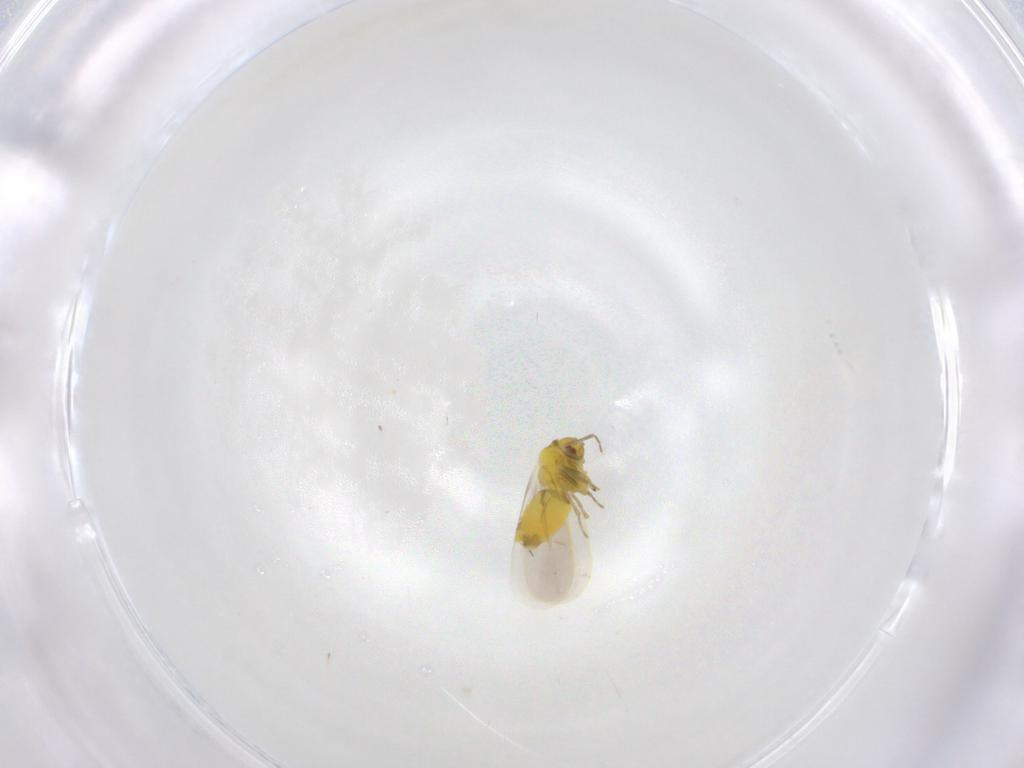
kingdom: Animalia
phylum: Arthropoda
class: Insecta
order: Hemiptera
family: Aleyrodidae
